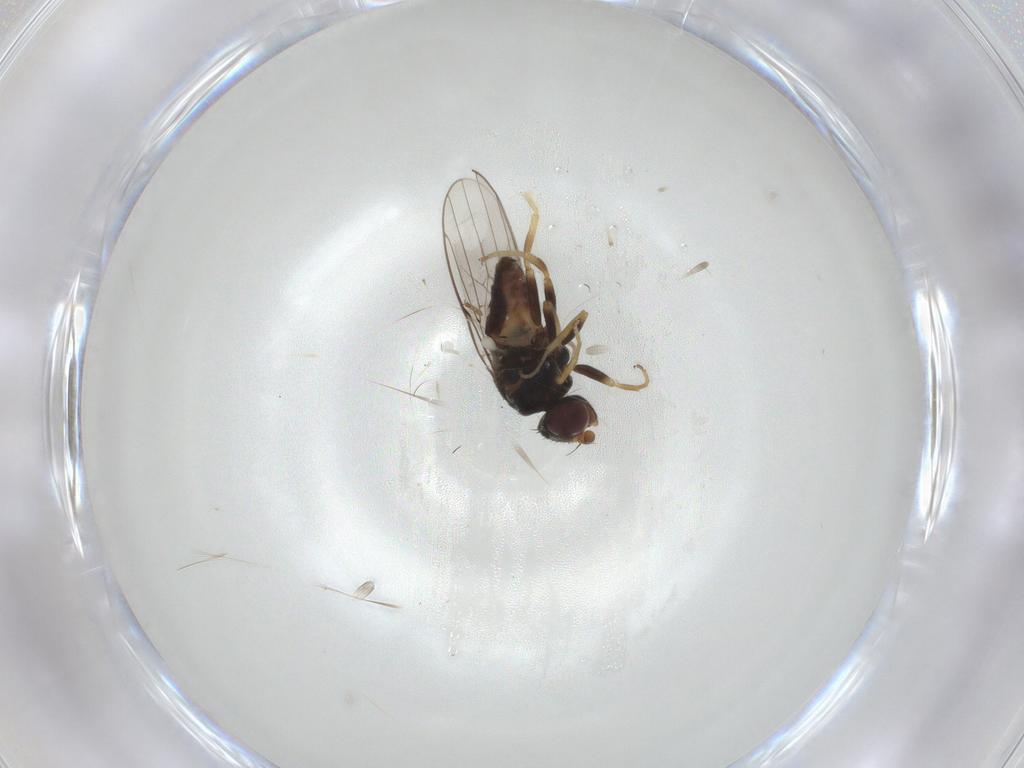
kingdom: Animalia
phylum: Arthropoda
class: Insecta
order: Diptera
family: Chloropidae
